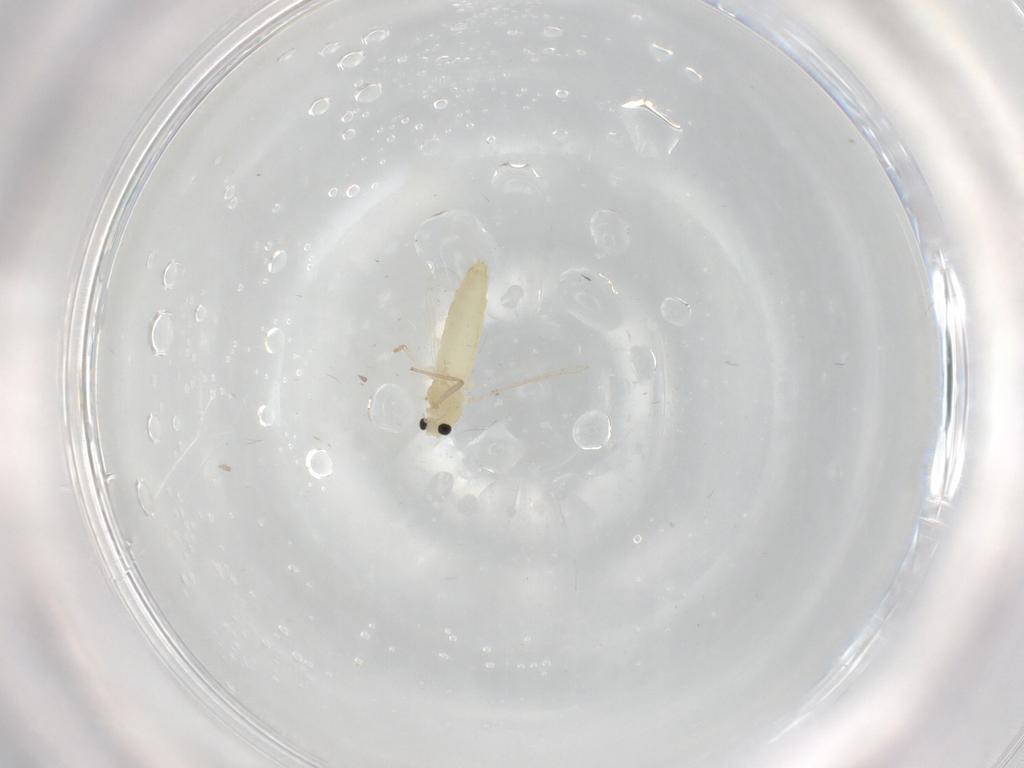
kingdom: Animalia
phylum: Arthropoda
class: Insecta
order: Diptera
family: Chironomidae
